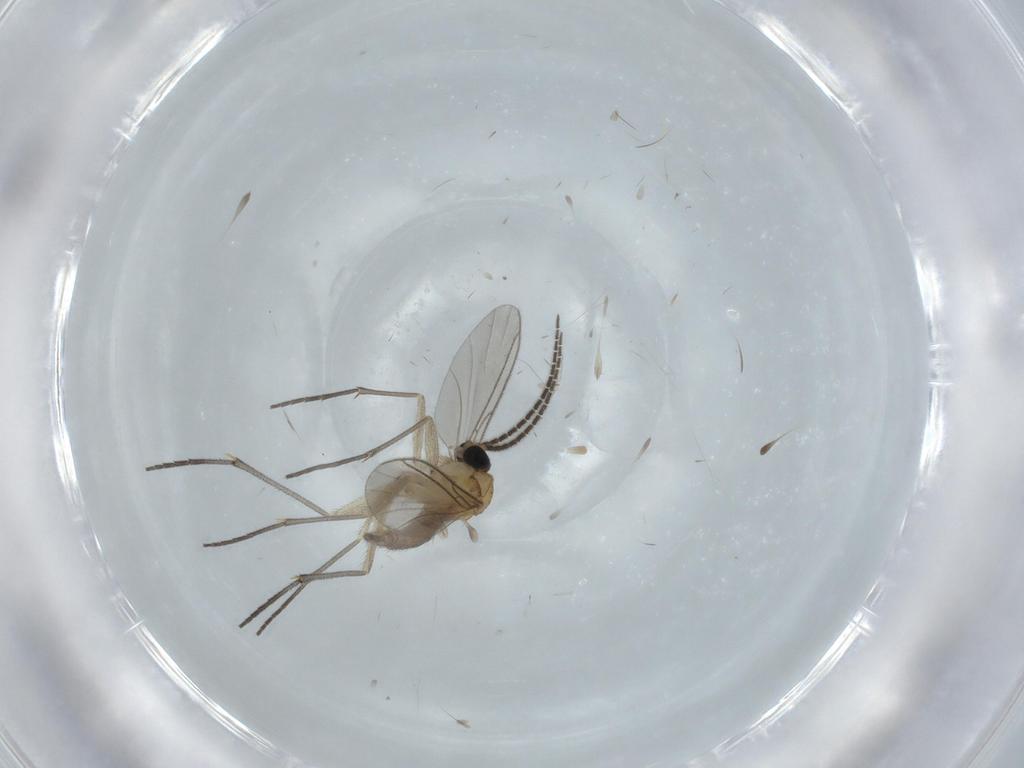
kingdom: Animalia
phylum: Arthropoda
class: Insecta
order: Diptera
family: Sciaridae
